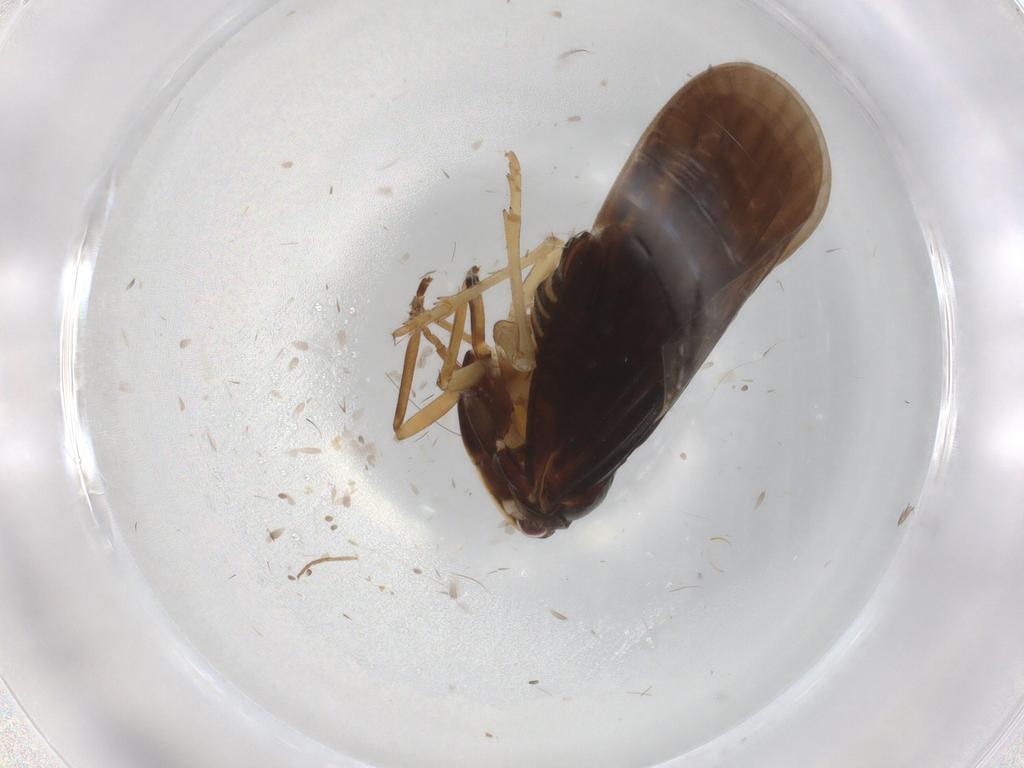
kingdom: Animalia
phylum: Arthropoda
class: Insecta
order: Hemiptera
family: Derbidae
